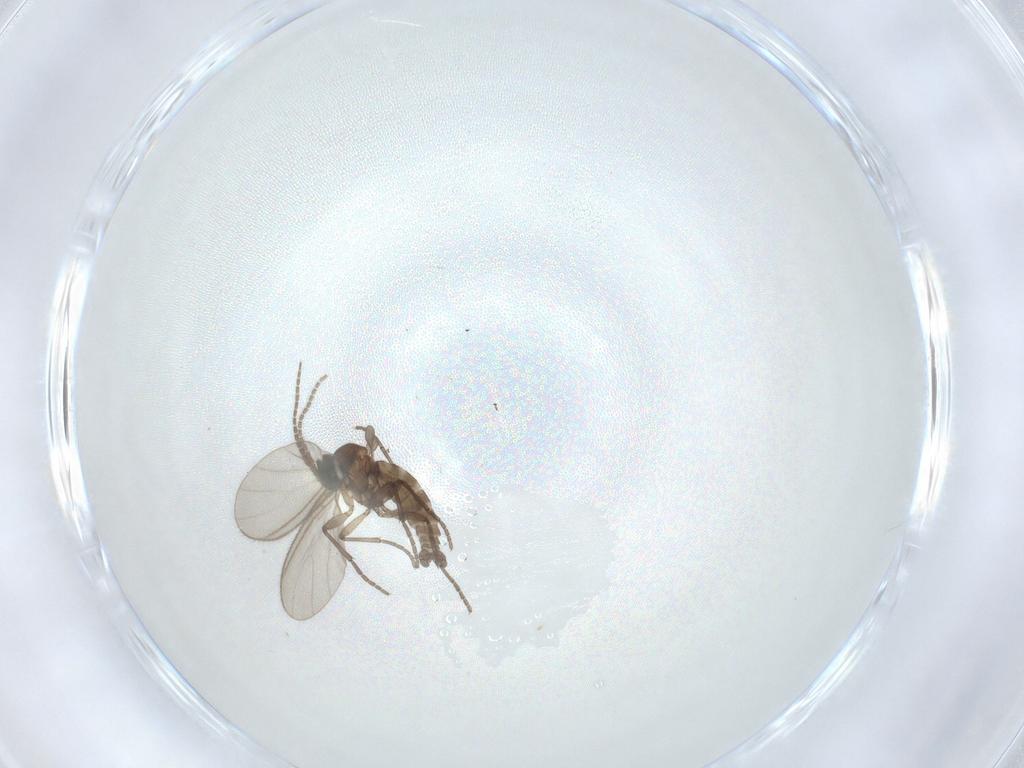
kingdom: Animalia
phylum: Arthropoda
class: Insecta
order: Diptera
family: Sciaridae
